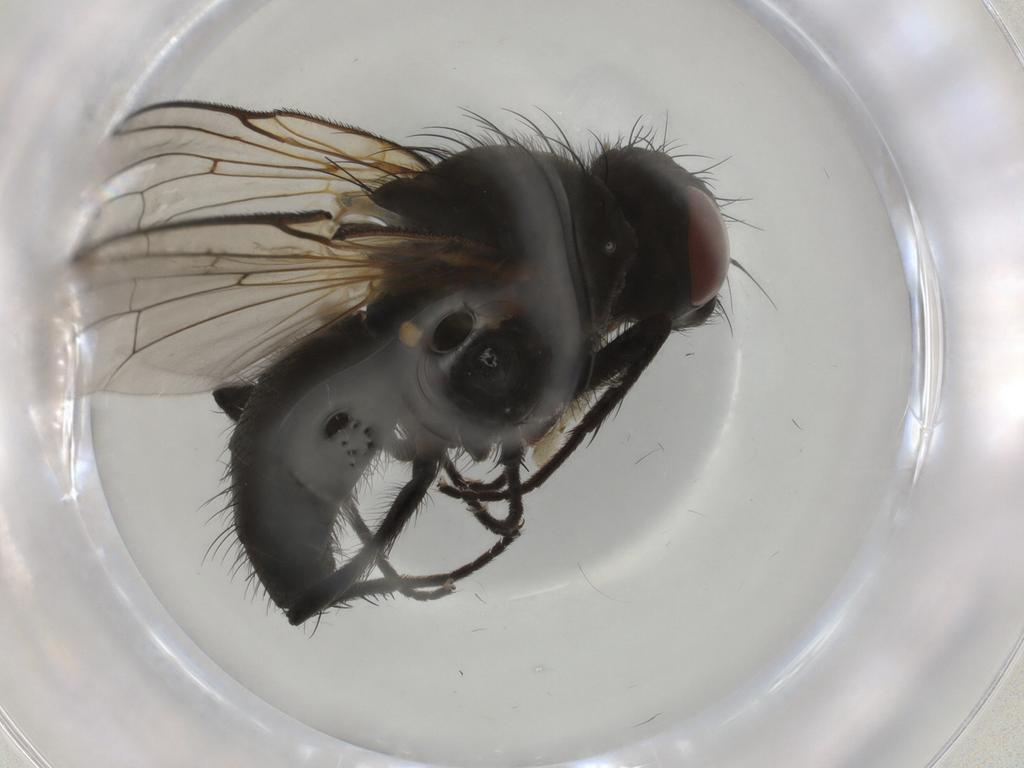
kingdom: Animalia
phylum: Arthropoda
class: Insecta
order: Diptera
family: Anthomyiidae
